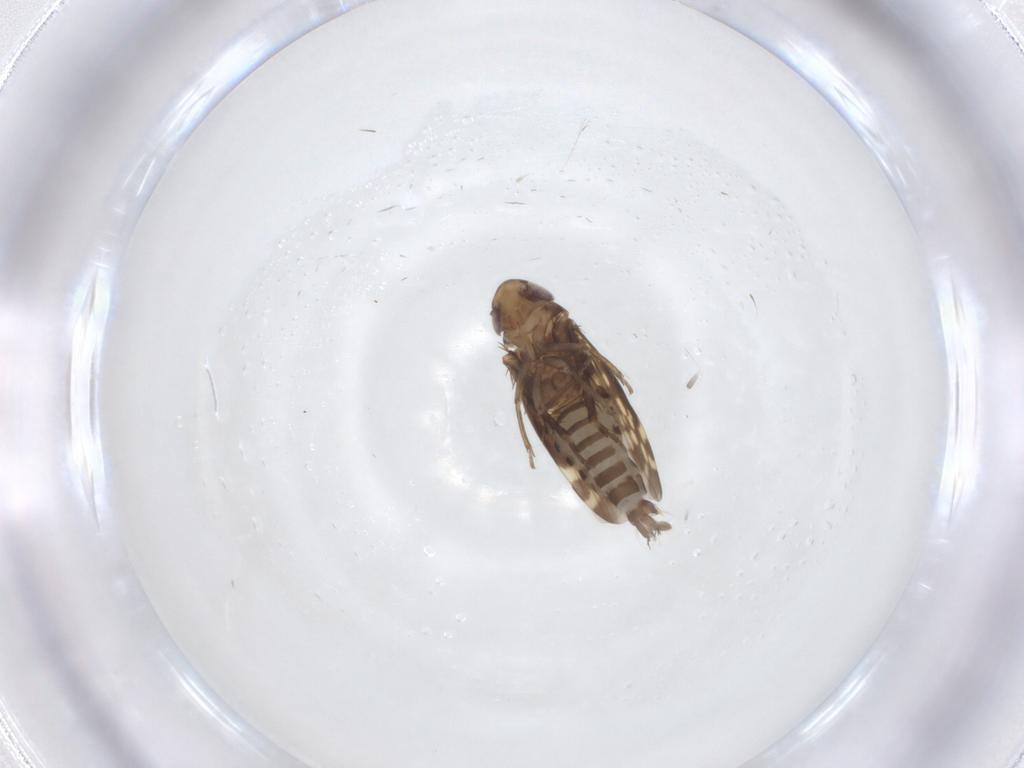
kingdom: Animalia
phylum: Arthropoda
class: Insecta
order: Hemiptera
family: Cicadellidae
